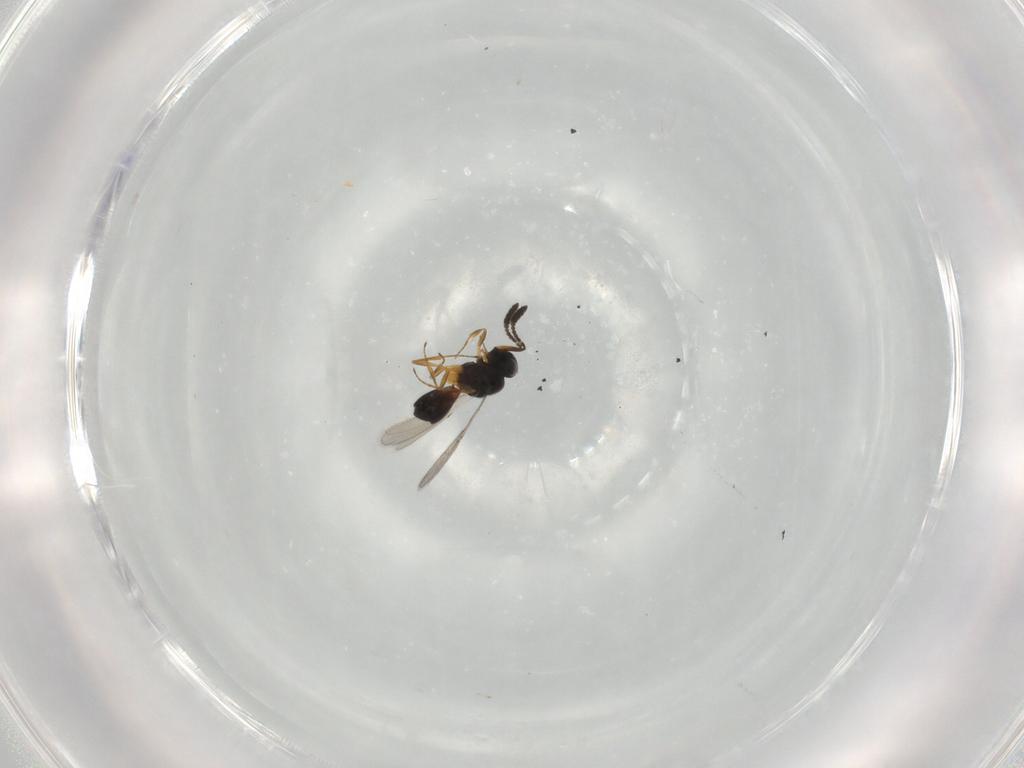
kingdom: Animalia
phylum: Arthropoda
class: Insecta
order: Hymenoptera
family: Scelionidae
